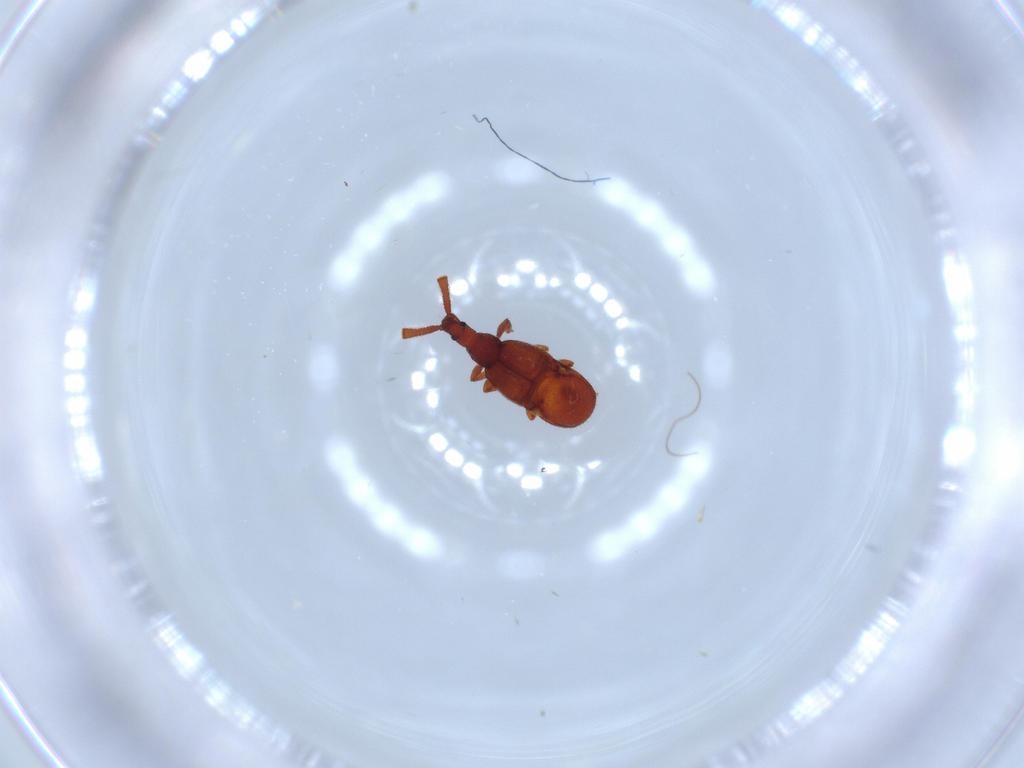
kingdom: Animalia
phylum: Arthropoda
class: Insecta
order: Coleoptera
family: Staphylinidae
